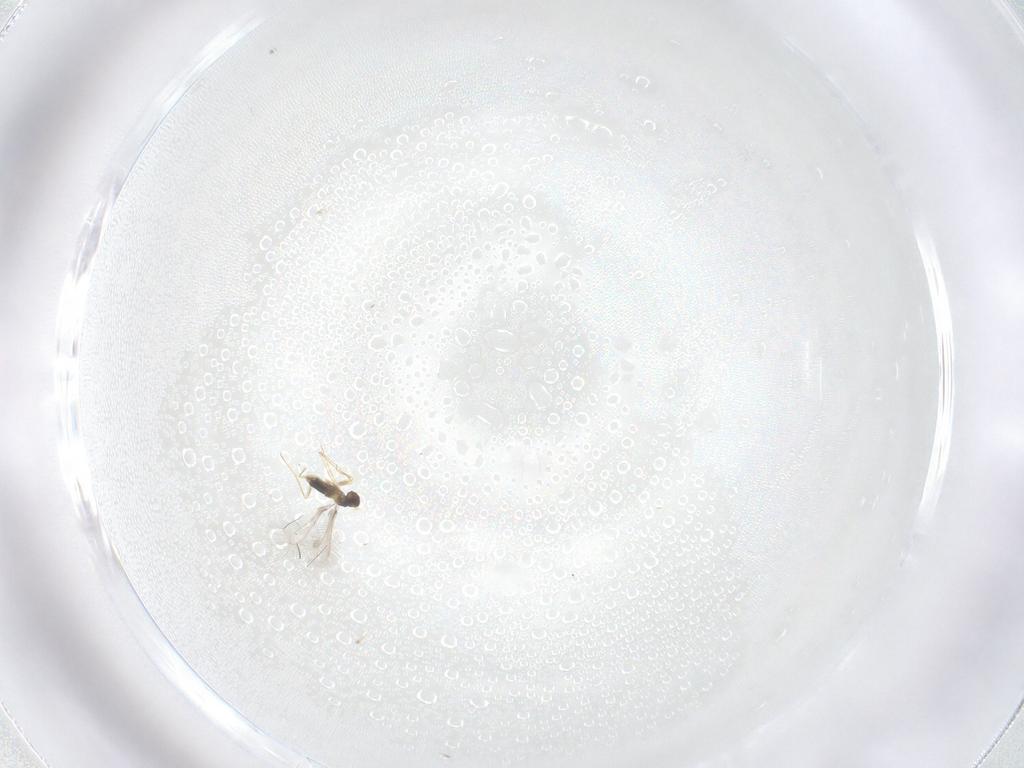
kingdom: Animalia
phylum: Arthropoda
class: Insecta
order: Hymenoptera
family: Mymaridae
